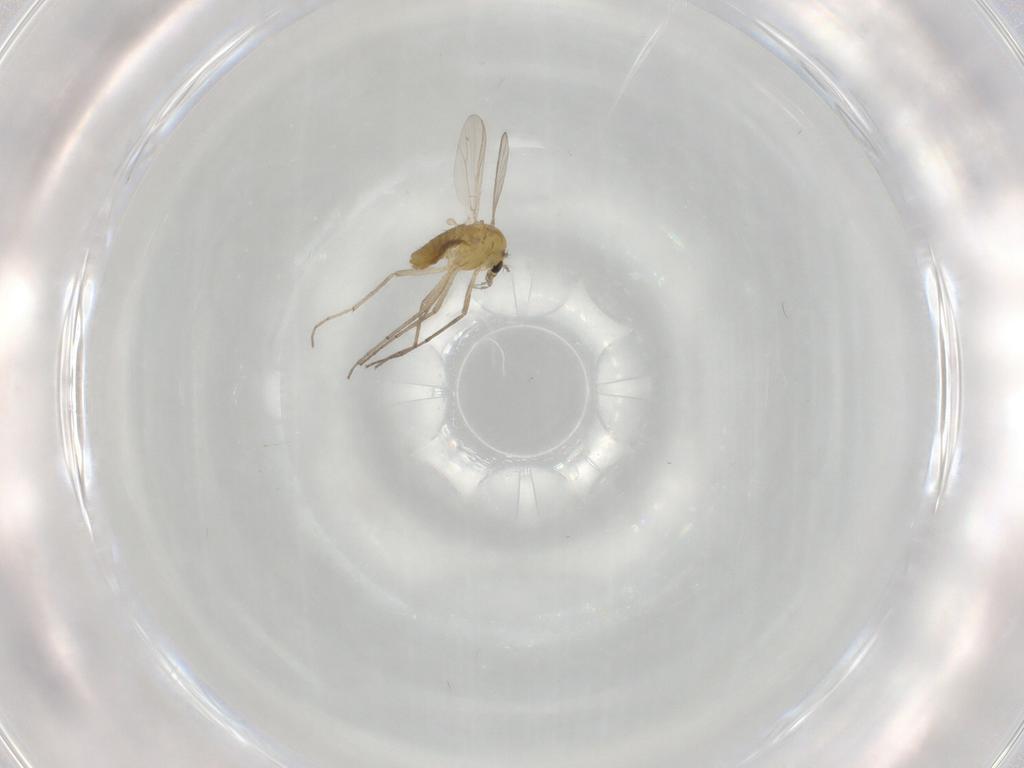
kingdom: Animalia
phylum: Arthropoda
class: Insecta
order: Diptera
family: Chironomidae
